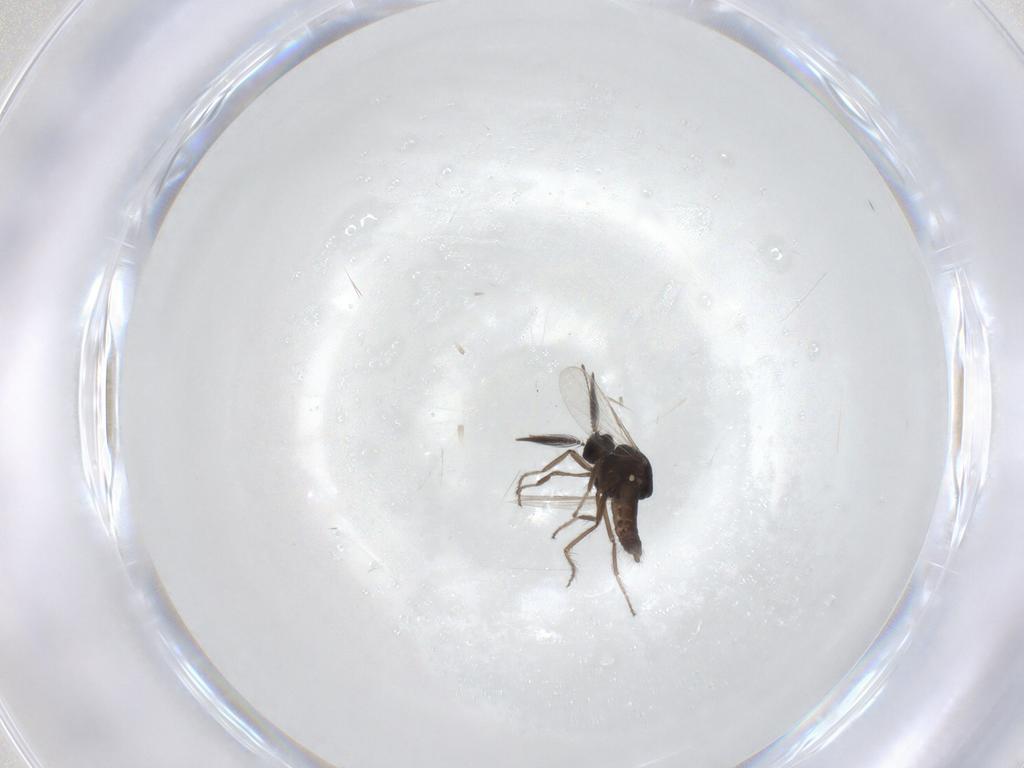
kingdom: Animalia
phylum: Arthropoda
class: Insecta
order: Diptera
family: Ceratopogonidae
